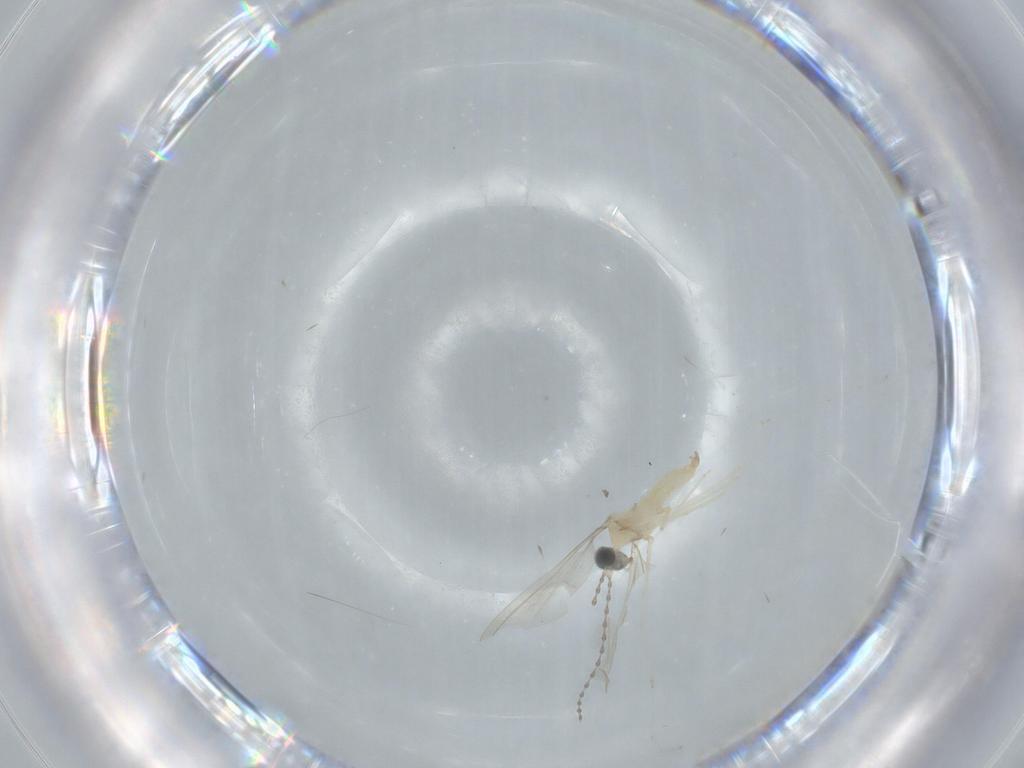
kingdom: Animalia
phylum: Arthropoda
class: Insecta
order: Diptera
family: Cecidomyiidae
